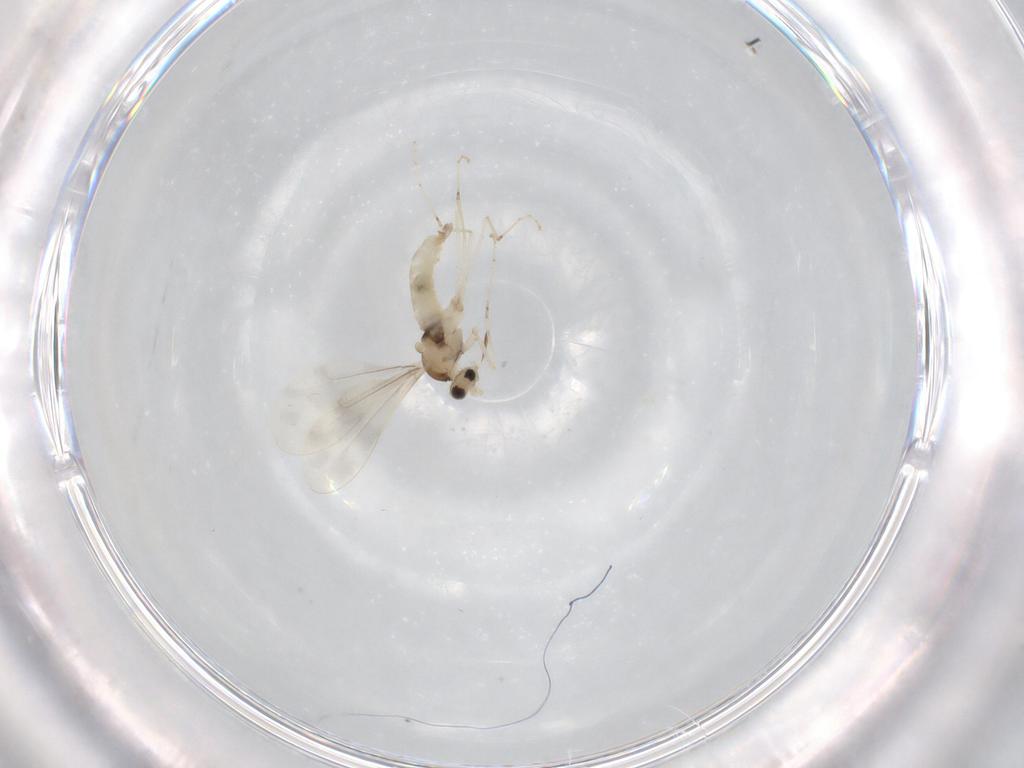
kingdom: Animalia
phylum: Arthropoda
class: Insecta
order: Diptera
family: Cecidomyiidae
